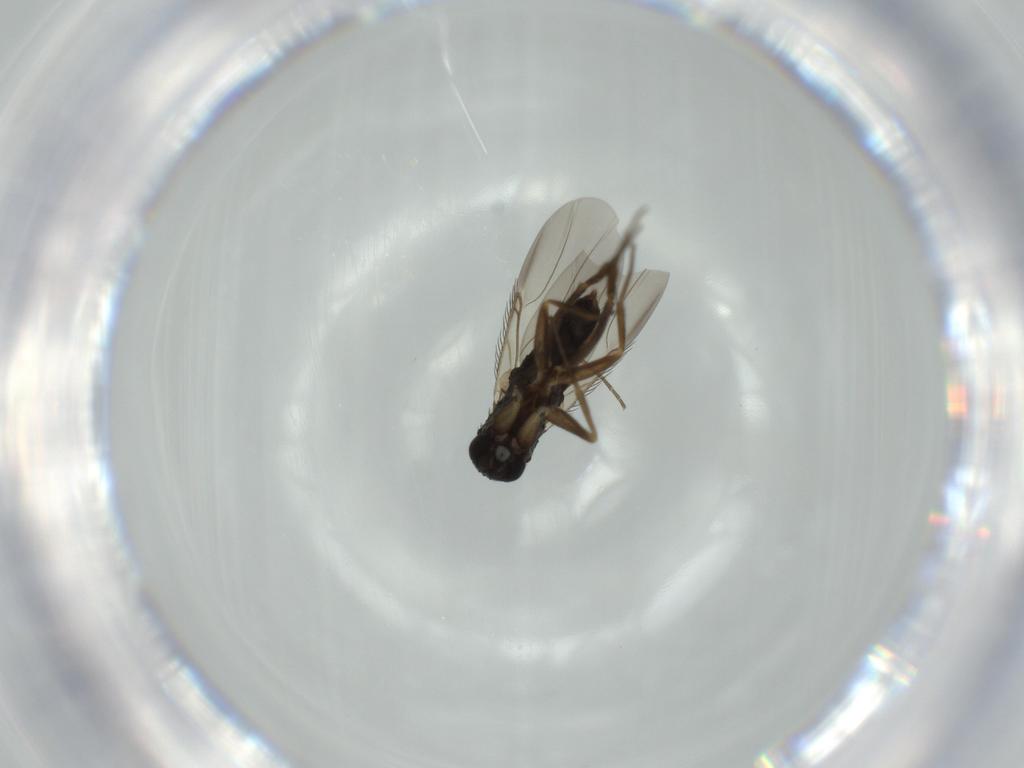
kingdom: Animalia
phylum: Arthropoda
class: Insecta
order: Diptera
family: Phoridae
